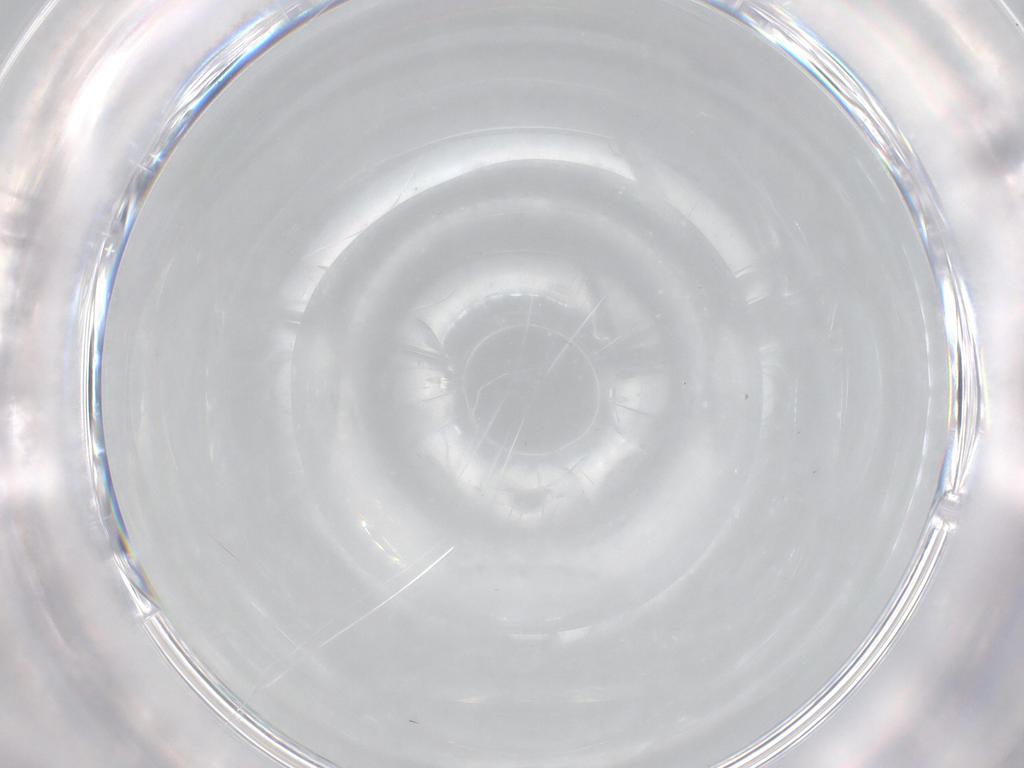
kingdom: Animalia
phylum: Arthropoda
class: Insecta
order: Diptera
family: Cecidomyiidae
